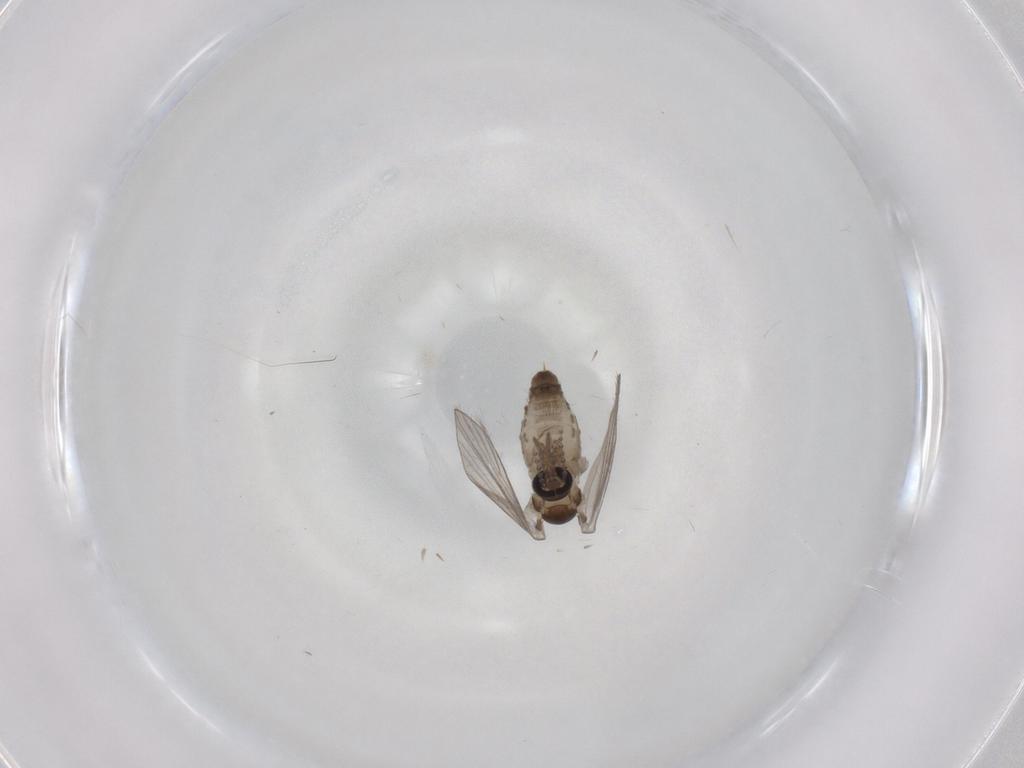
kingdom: Animalia
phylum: Arthropoda
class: Insecta
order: Diptera
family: Psychodidae
